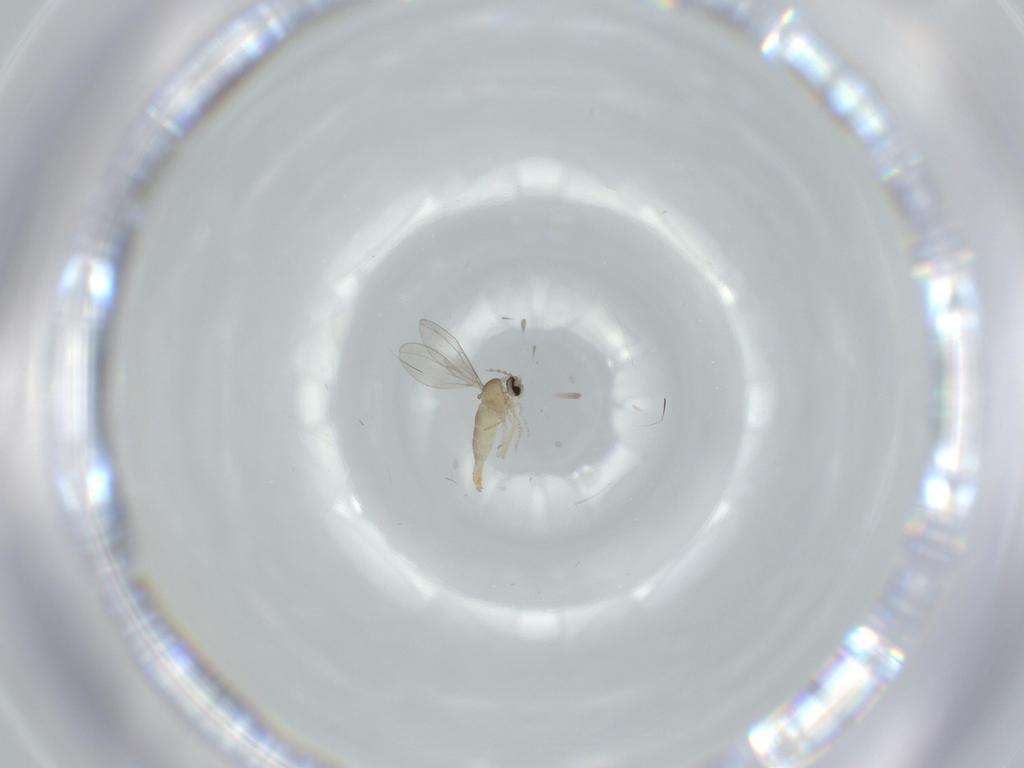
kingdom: Animalia
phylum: Arthropoda
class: Insecta
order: Diptera
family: Cecidomyiidae
